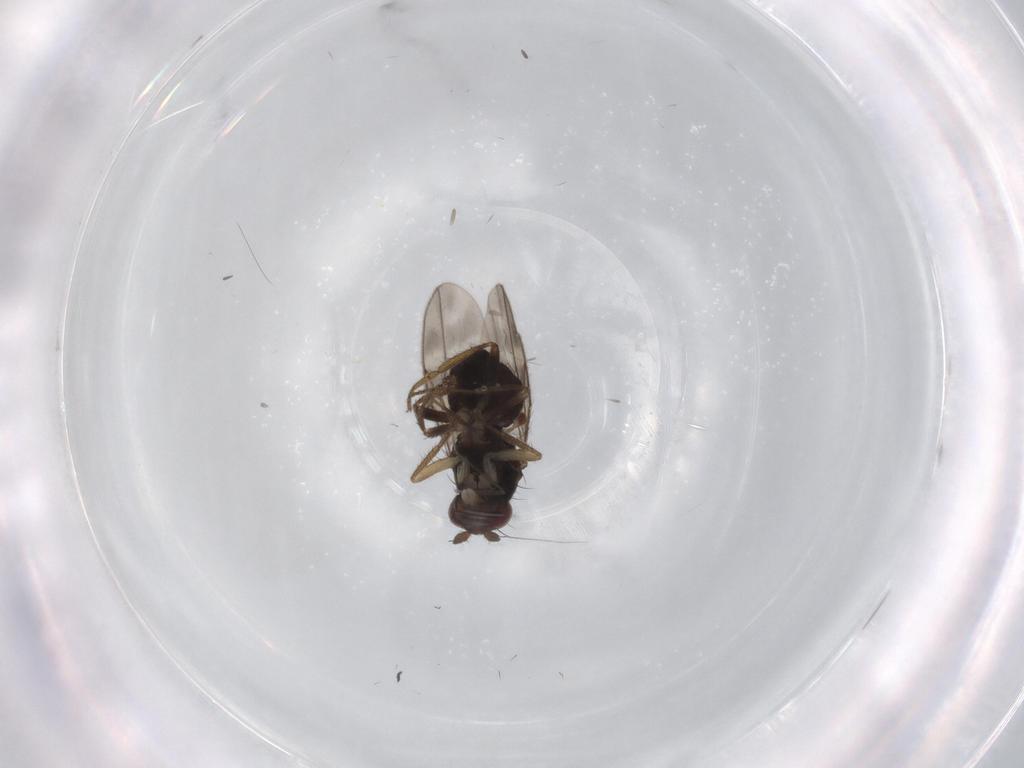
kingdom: Animalia
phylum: Arthropoda
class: Insecta
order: Diptera
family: Sphaeroceridae
